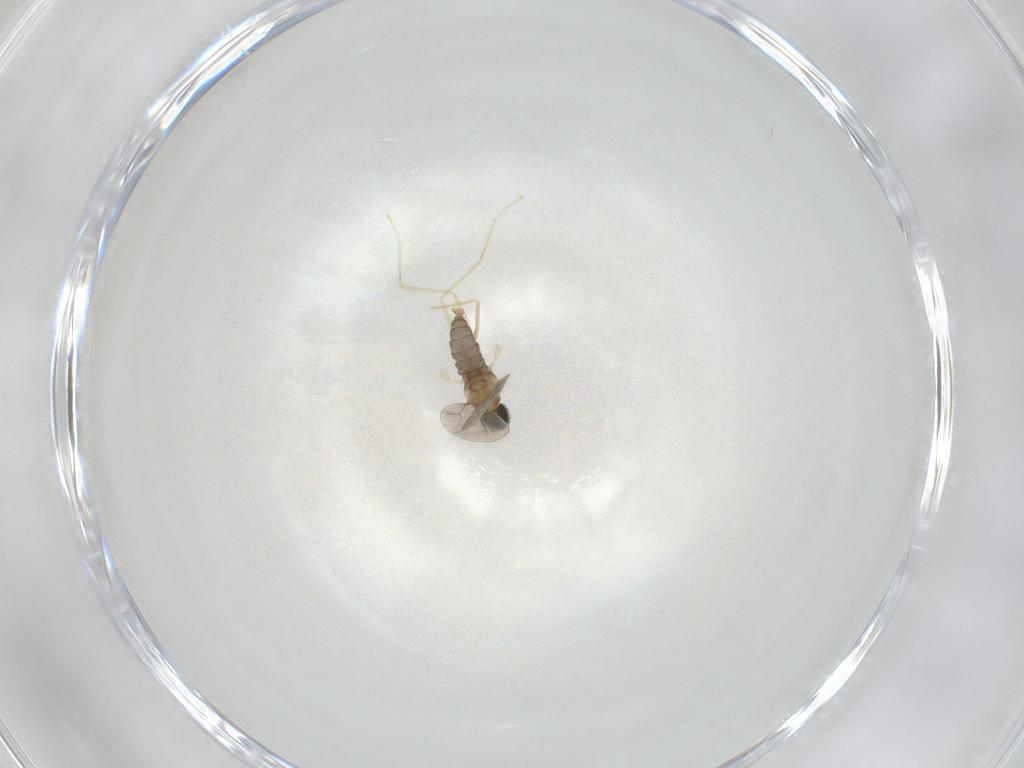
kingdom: Animalia
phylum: Arthropoda
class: Insecta
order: Diptera
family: Cecidomyiidae
